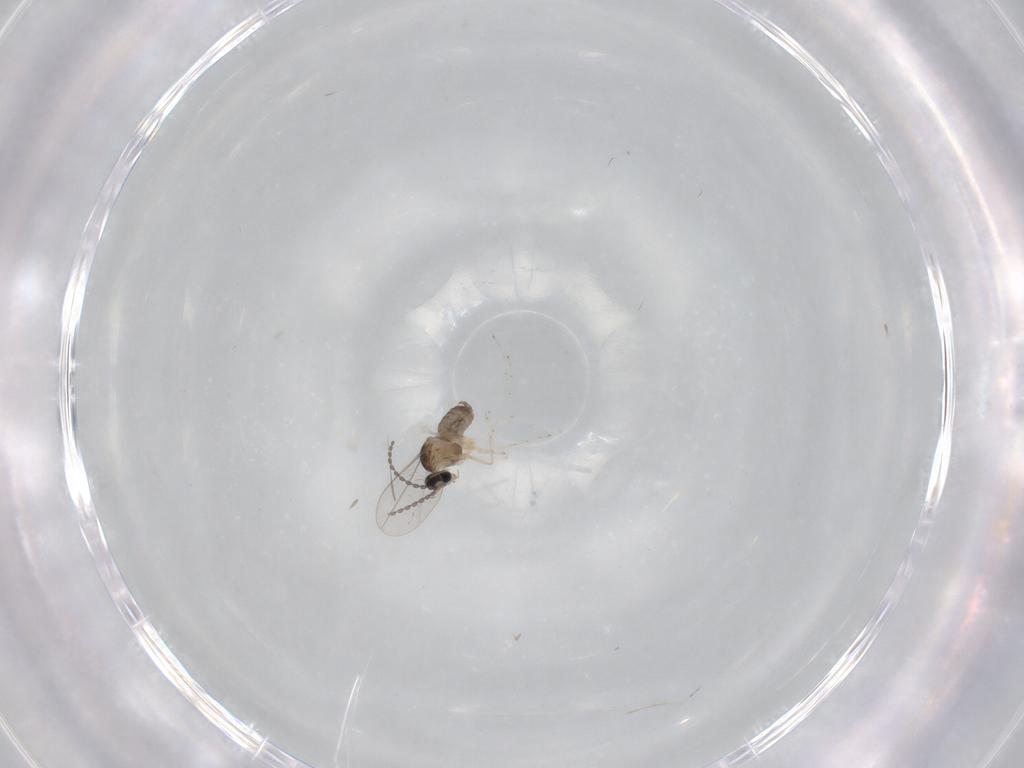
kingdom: Animalia
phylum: Arthropoda
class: Insecta
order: Diptera
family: Cecidomyiidae
